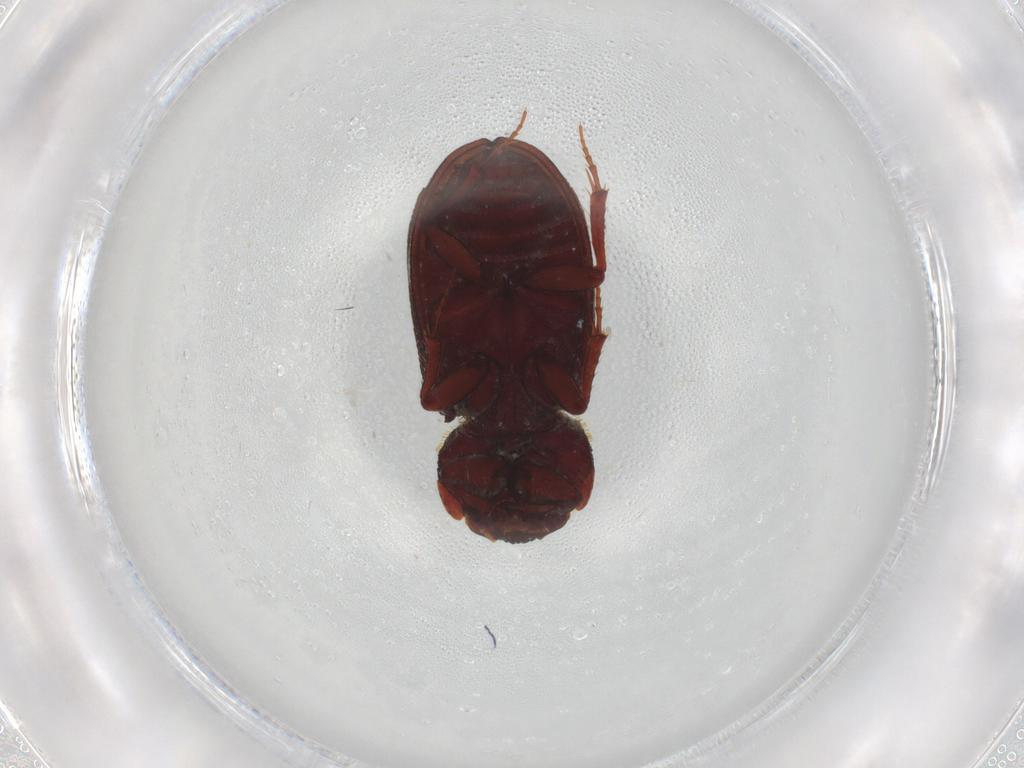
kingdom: Animalia
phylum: Arthropoda
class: Insecta
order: Coleoptera
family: Scarabaeidae
